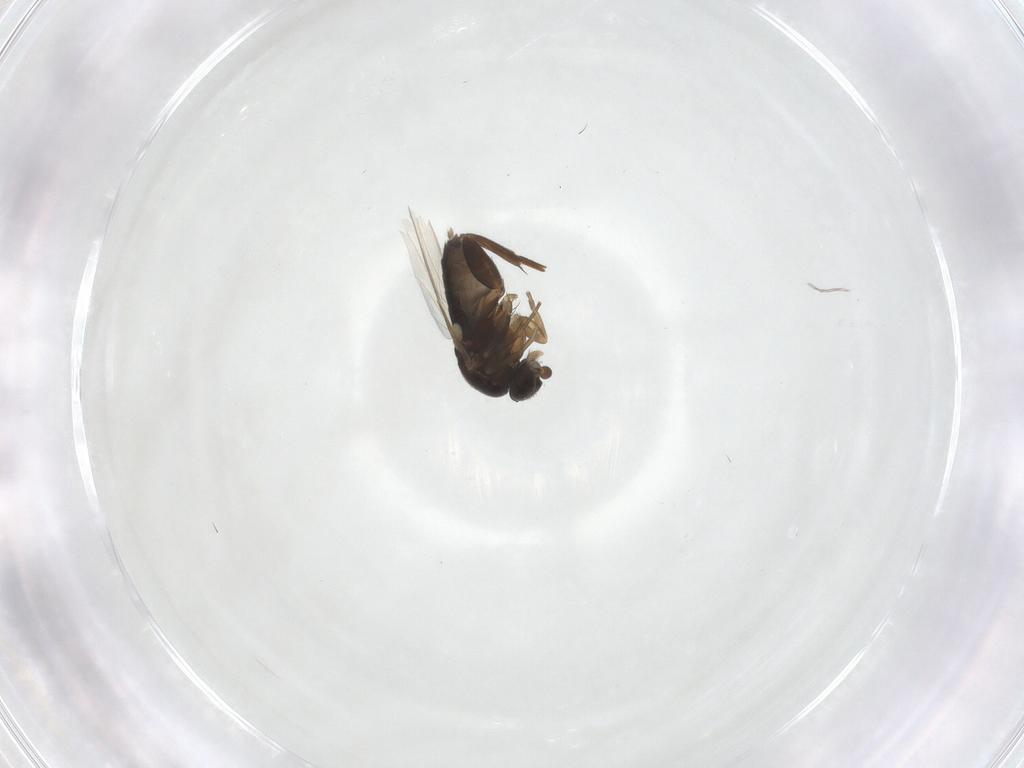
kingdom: Animalia
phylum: Arthropoda
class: Insecta
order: Diptera
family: Phoridae
